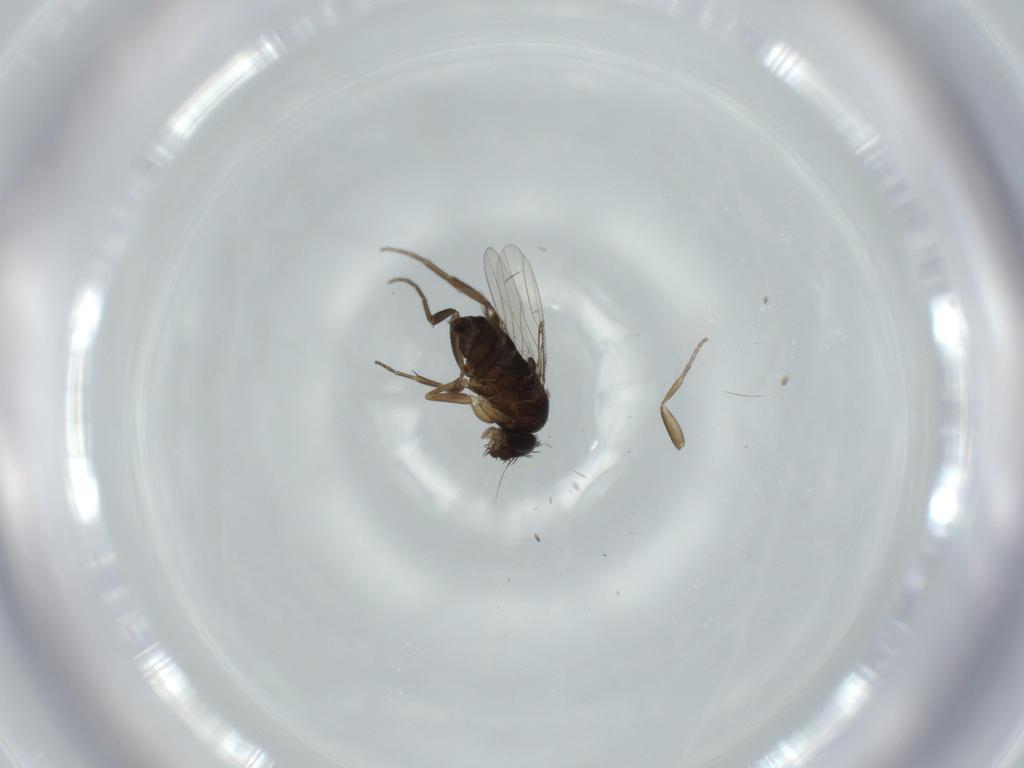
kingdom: Animalia
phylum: Arthropoda
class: Insecta
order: Diptera
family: Phoridae
